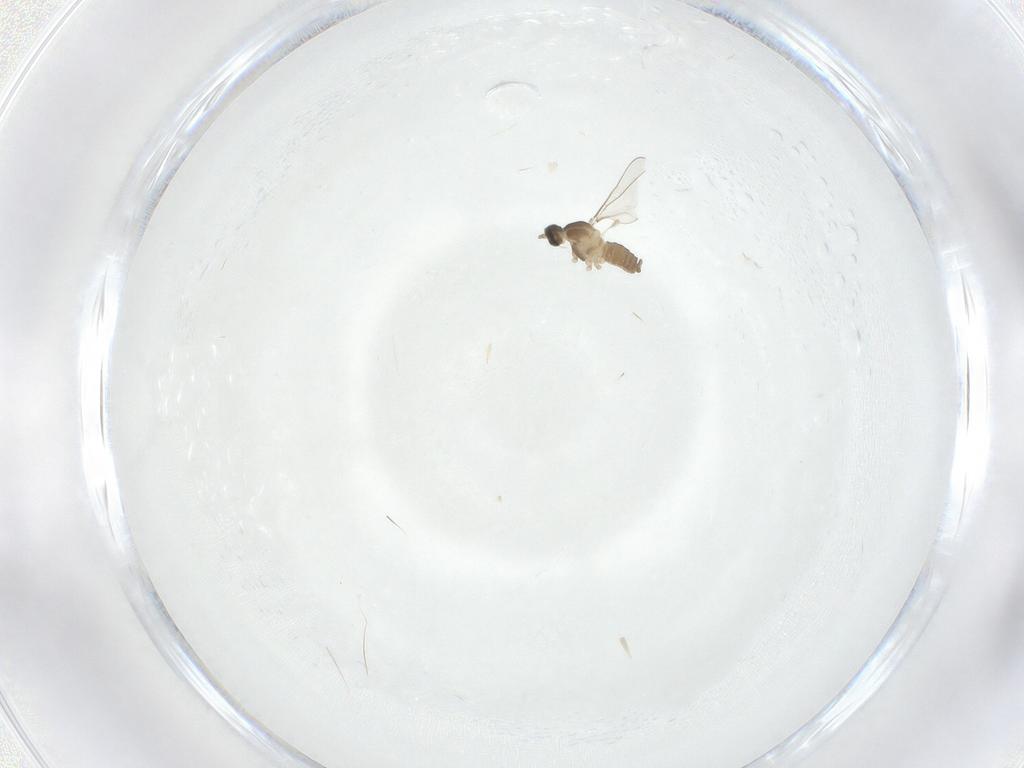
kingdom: Animalia
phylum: Arthropoda
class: Insecta
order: Diptera
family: Cecidomyiidae
